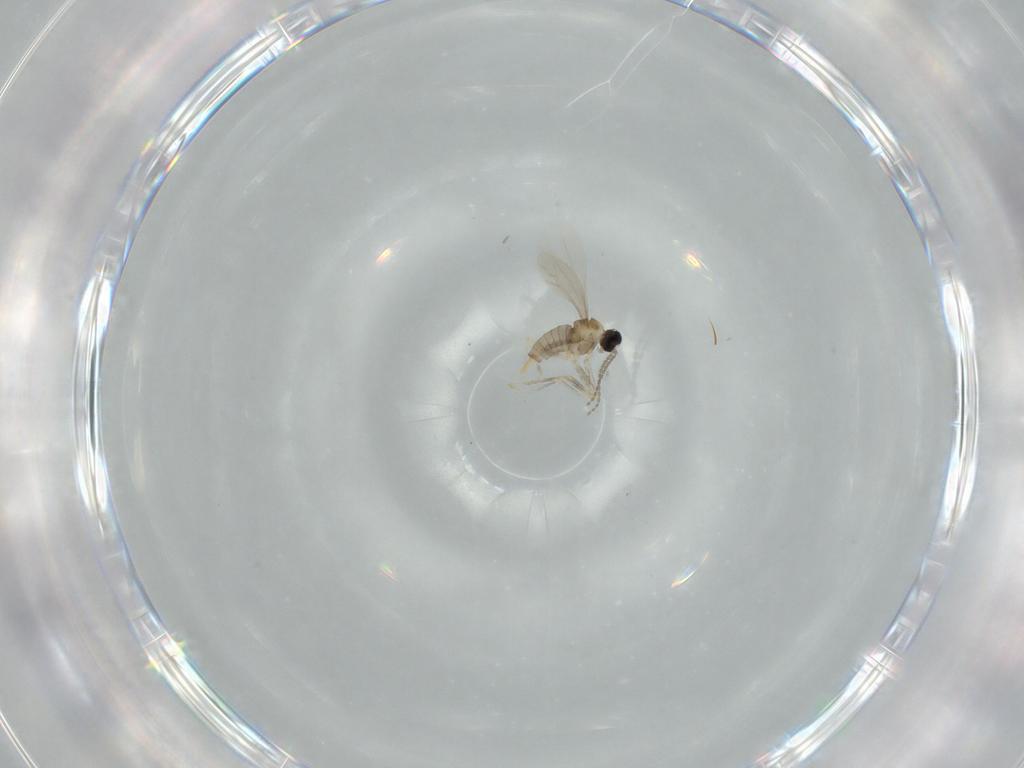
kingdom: Animalia
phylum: Arthropoda
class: Insecta
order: Diptera
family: Cecidomyiidae
